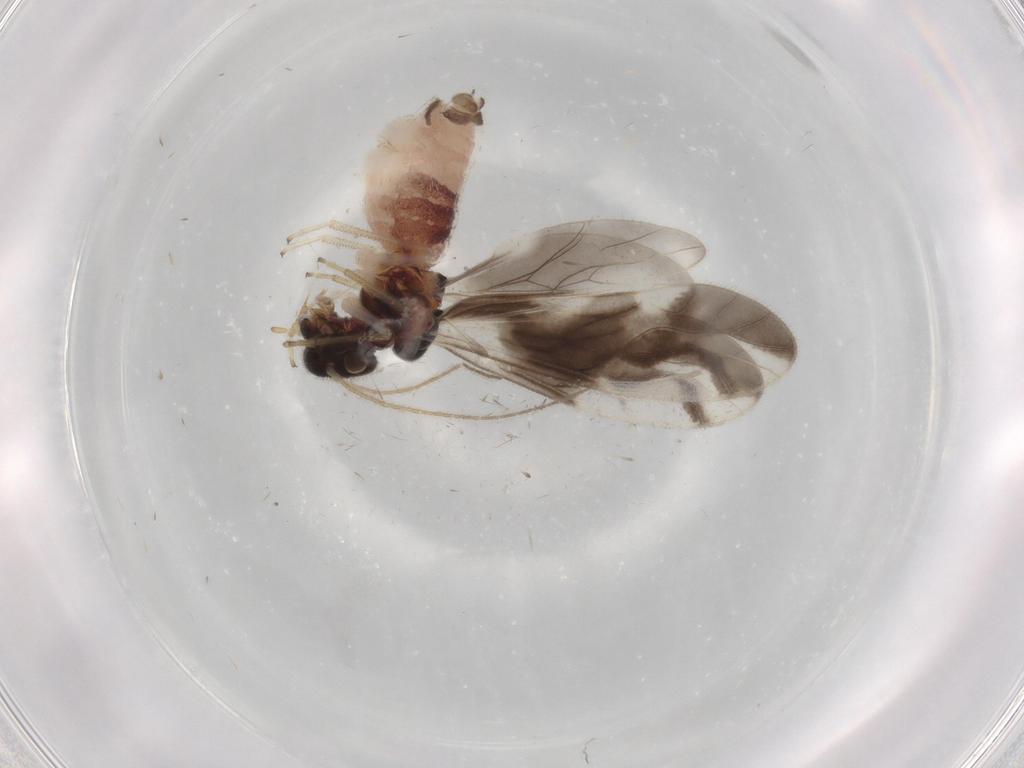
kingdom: Animalia
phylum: Arthropoda
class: Insecta
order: Psocodea
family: Caeciliusidae
